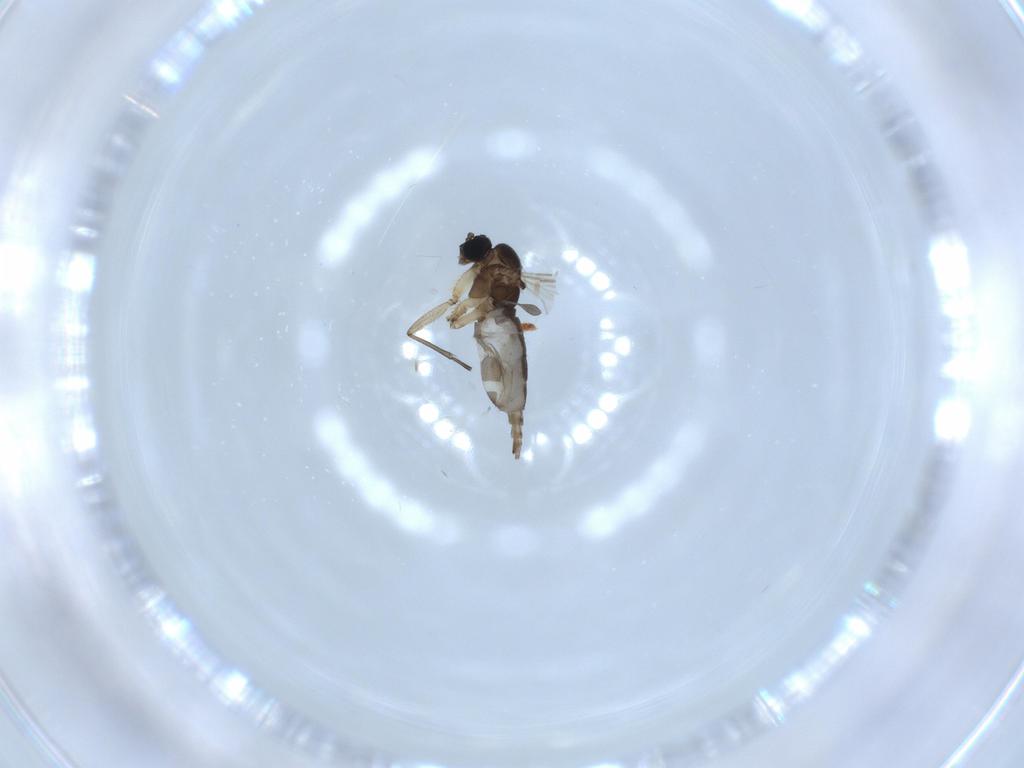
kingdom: Animalia
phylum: Arthropoda
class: Insecta
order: Diptera
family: Sciaridae
